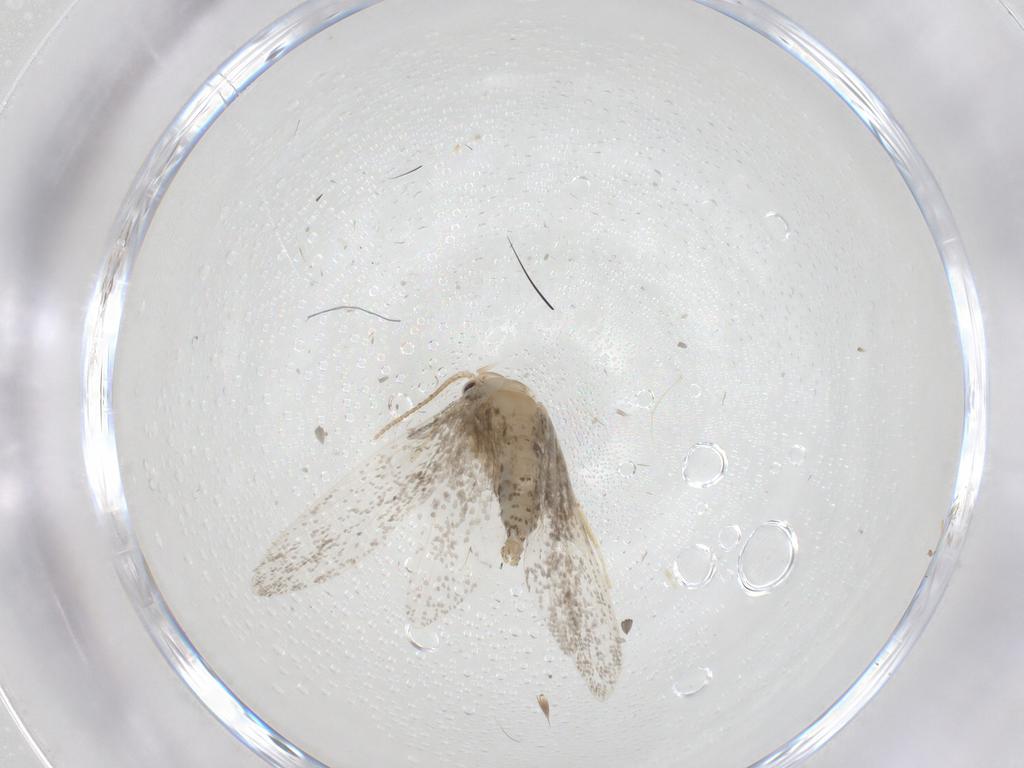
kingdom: Animalia
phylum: Arthropoda
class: Insecta
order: Lepidoptera
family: Psychidae
